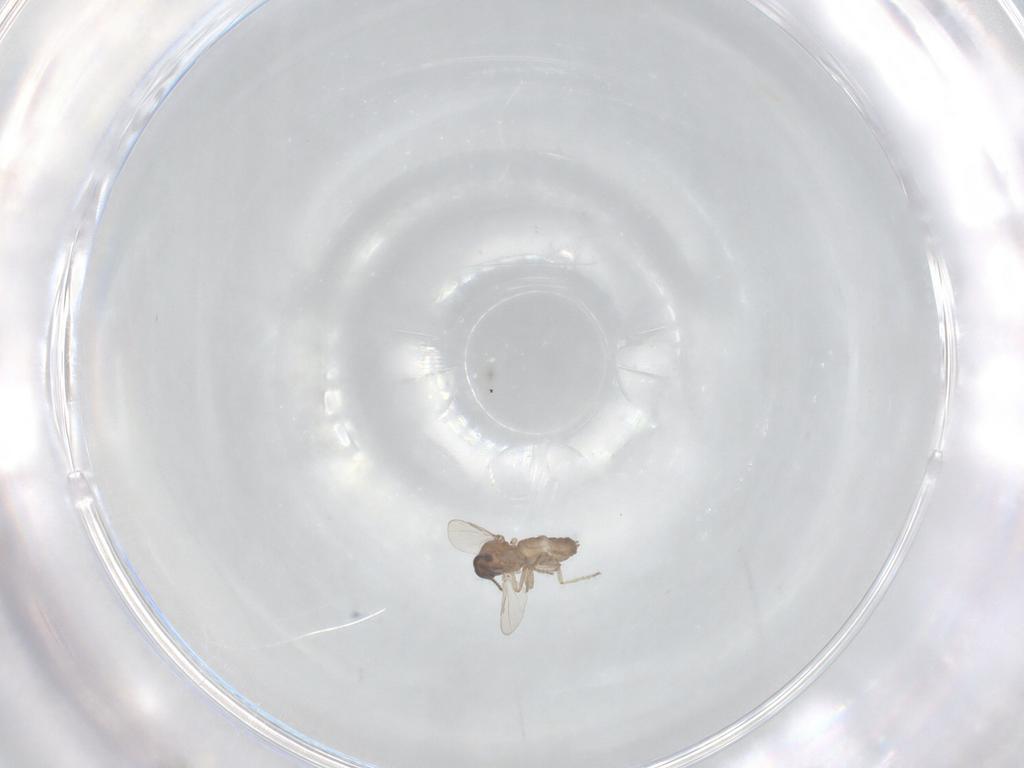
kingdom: Animalia
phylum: Arthropoda
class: Insecta
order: Diptera
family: Ceratopogonidae
